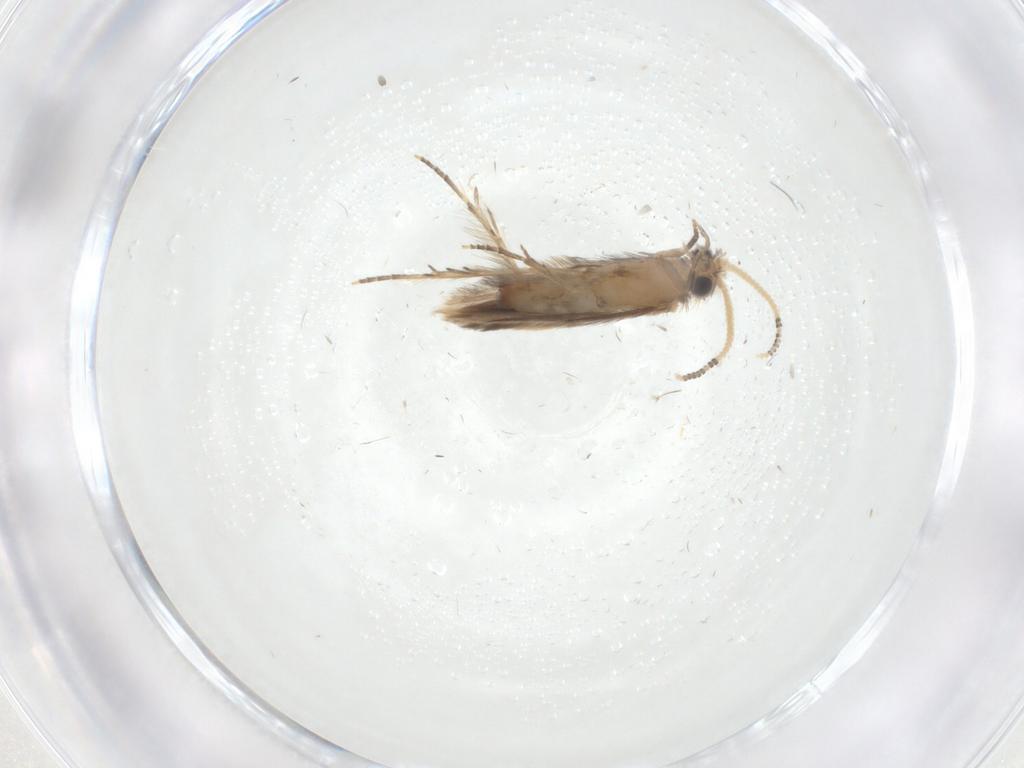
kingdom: Animalia
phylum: Arthropoda
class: Insecta
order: Trichoptera
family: Hydroptilidae
